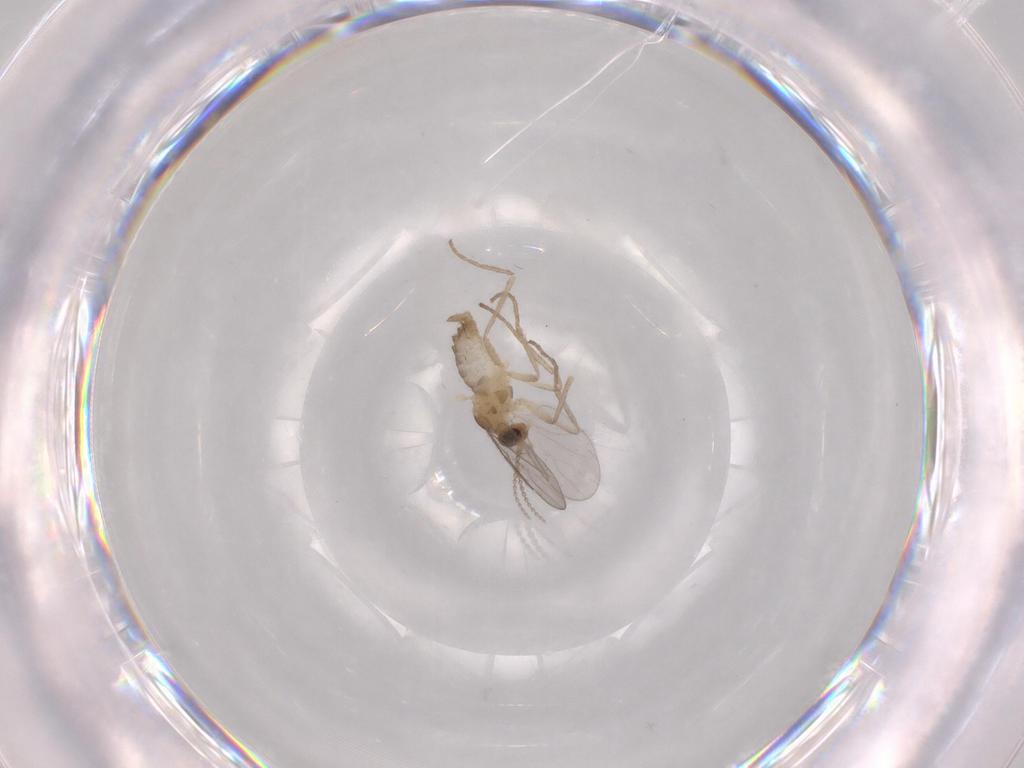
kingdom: Animalia
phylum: Arthropoda
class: Insecta
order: Diptera
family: Cecidomyiidae
